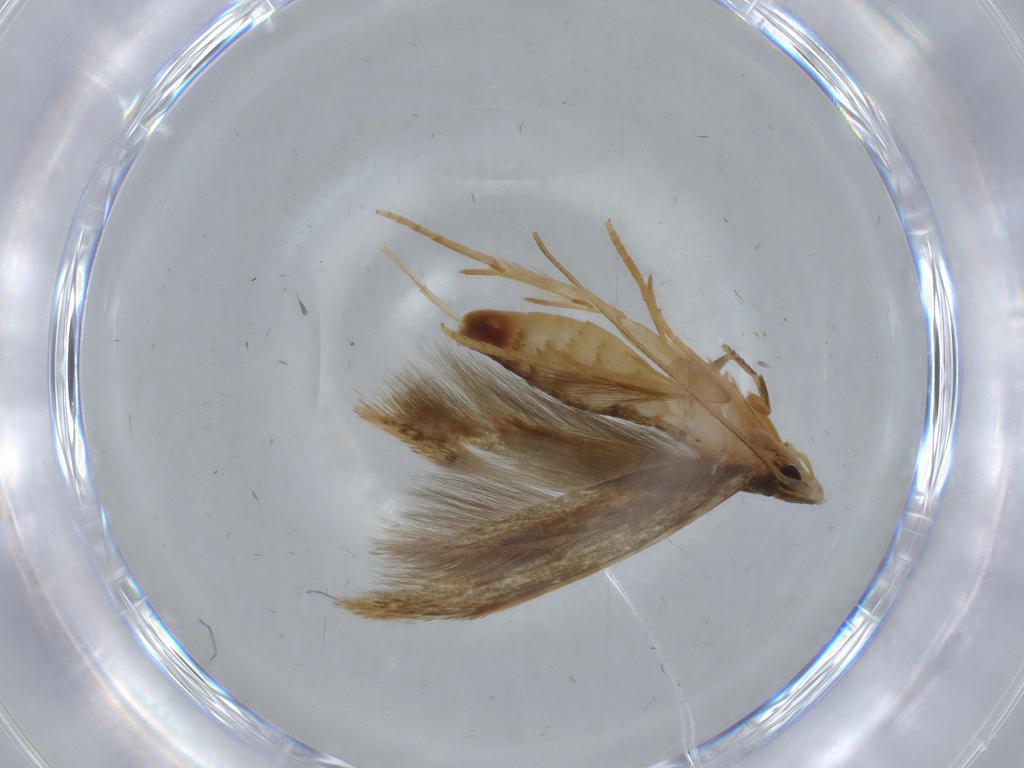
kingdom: Animalia
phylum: Arthropoda
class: Insecta
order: Lepidoptera
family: Tineidae
